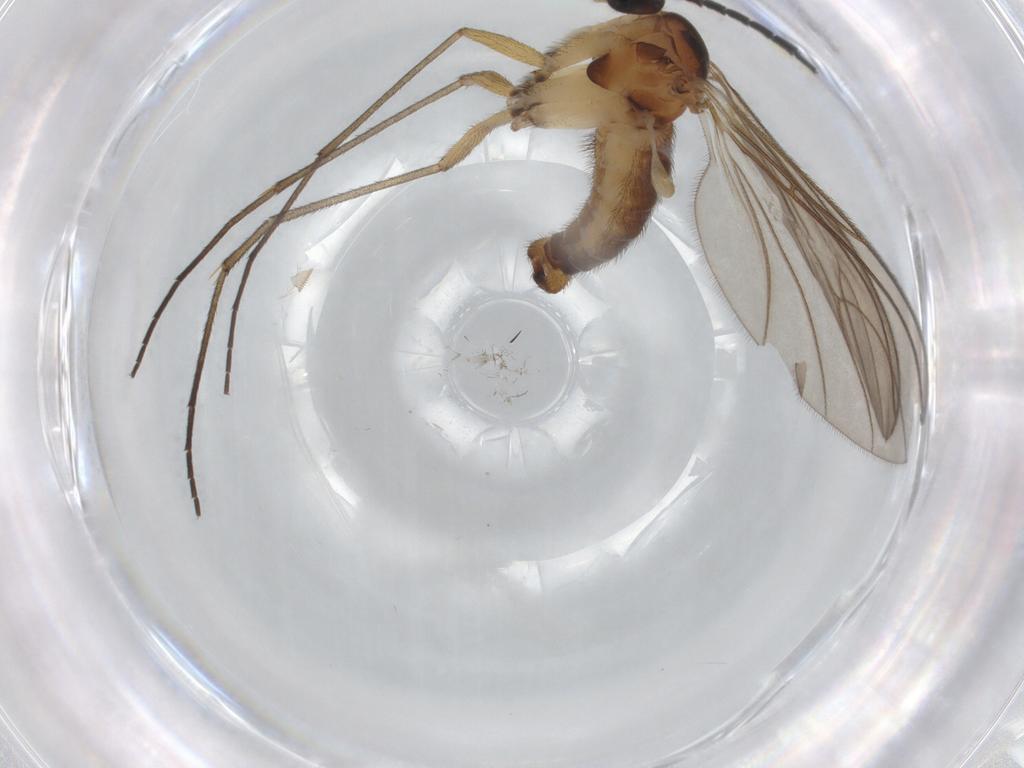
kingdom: Animalia
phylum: Arthropoda
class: Insecta
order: Diptera
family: Sciaridae
